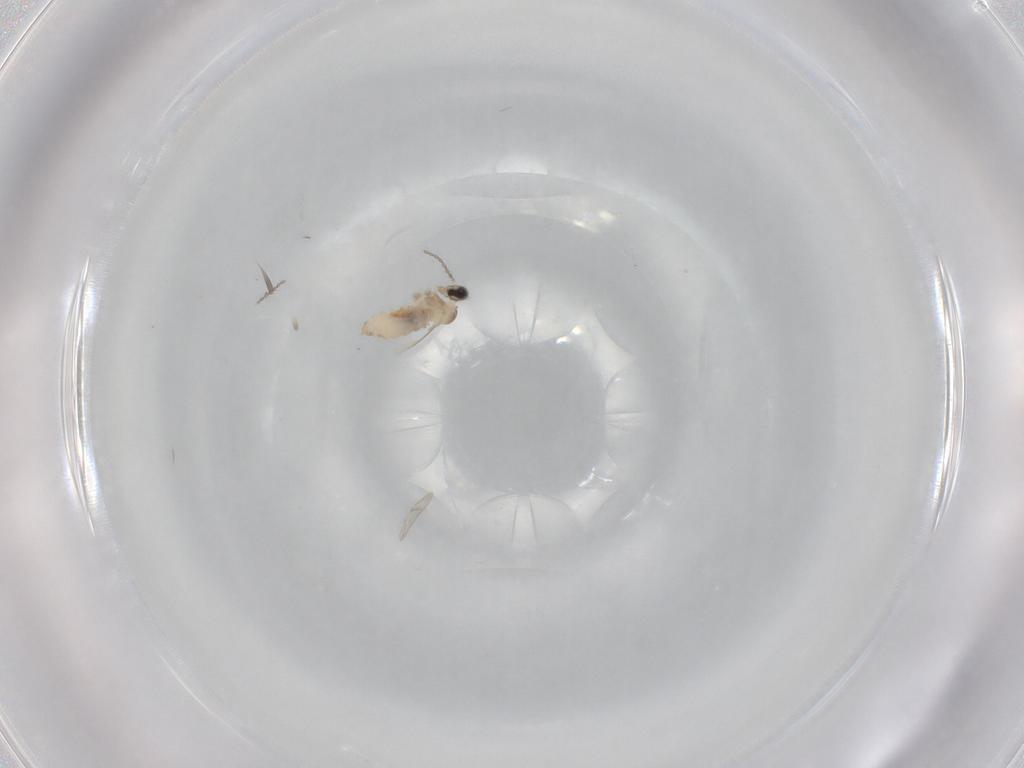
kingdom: Animalia
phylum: Arthropoda
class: Insecta
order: Diptera
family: Cecidomyiidae
